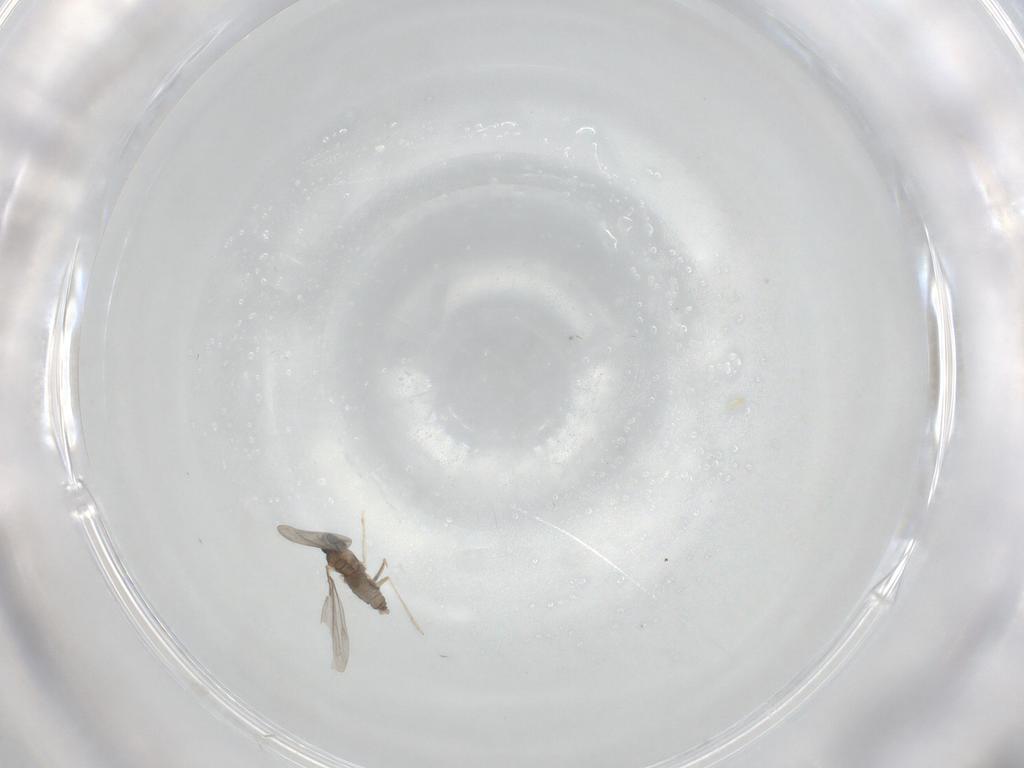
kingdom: Animalia
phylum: Arthropoda
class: Insecta
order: Diptera
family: Cecidomyiidae
